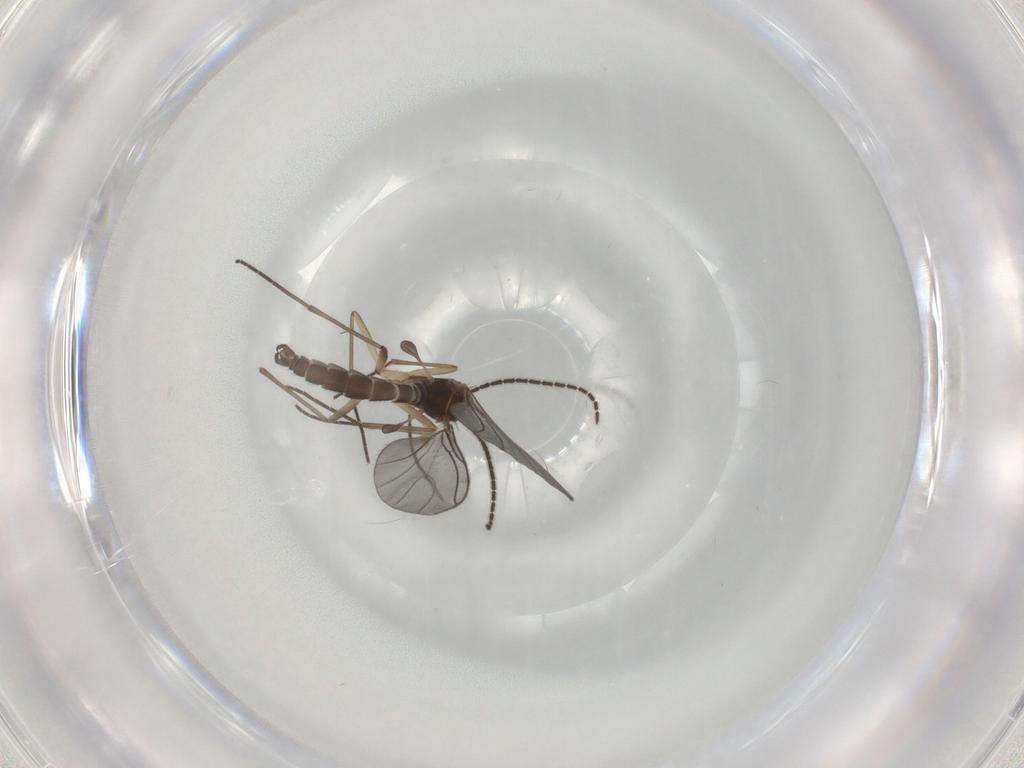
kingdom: Animalia
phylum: Arthropoda
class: Insecta
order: Diptera
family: Sciaridae
